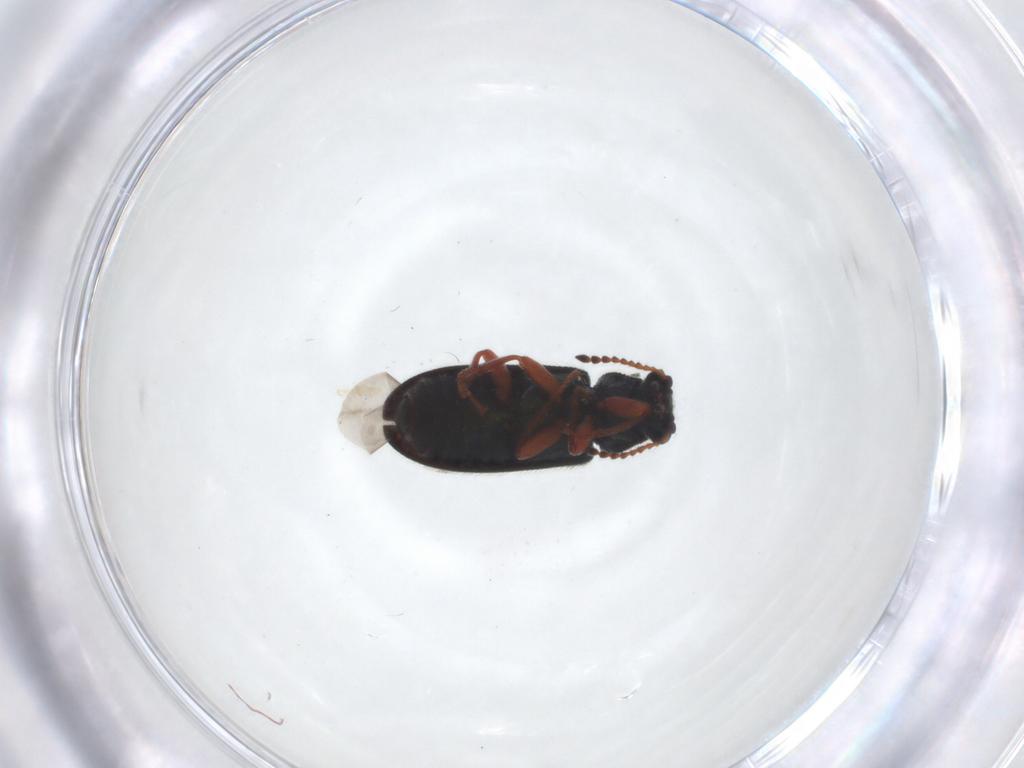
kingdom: Animalia
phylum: Arthropoda
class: Insecta
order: Coleoptera
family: Melyridae
